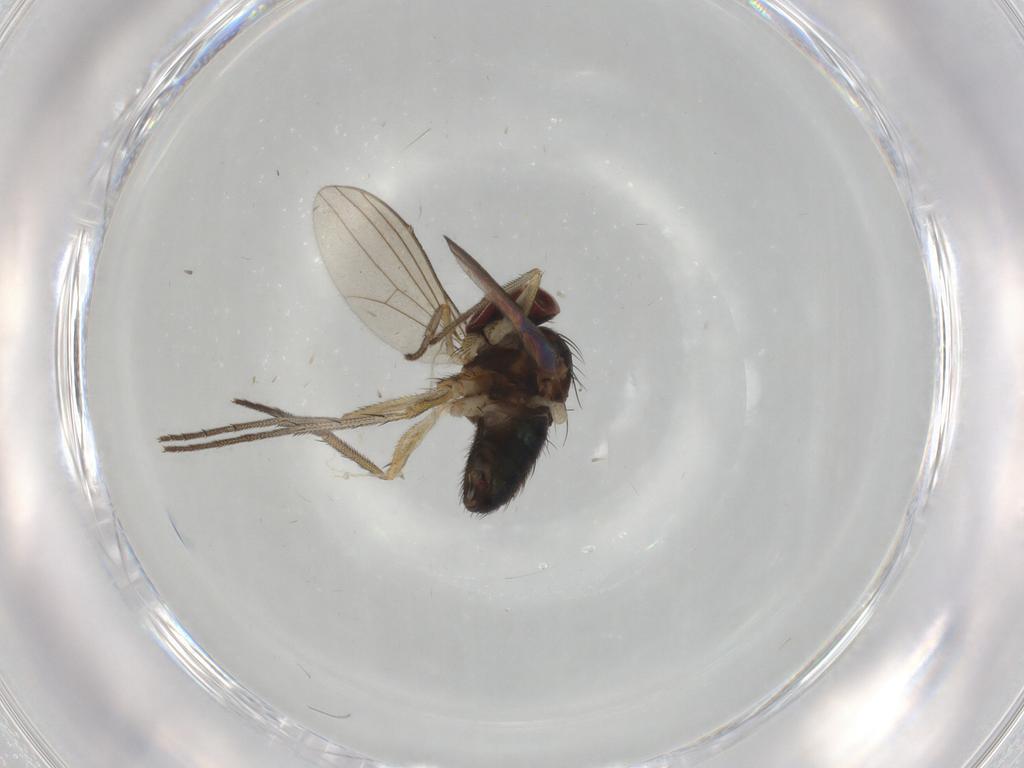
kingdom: Animalia
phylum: Arthropoda
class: Insecta
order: Diptera
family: Dolichopodidae
